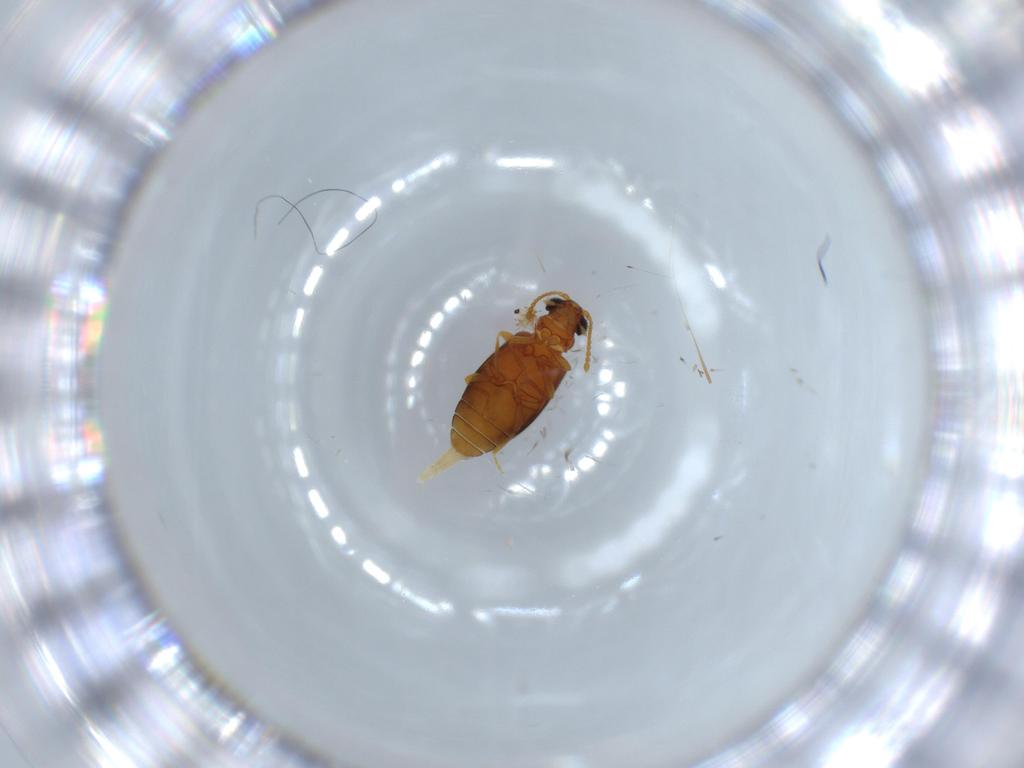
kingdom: Animalia
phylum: Arthropoda
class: Insecta
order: Coleoptera
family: Aderidae
